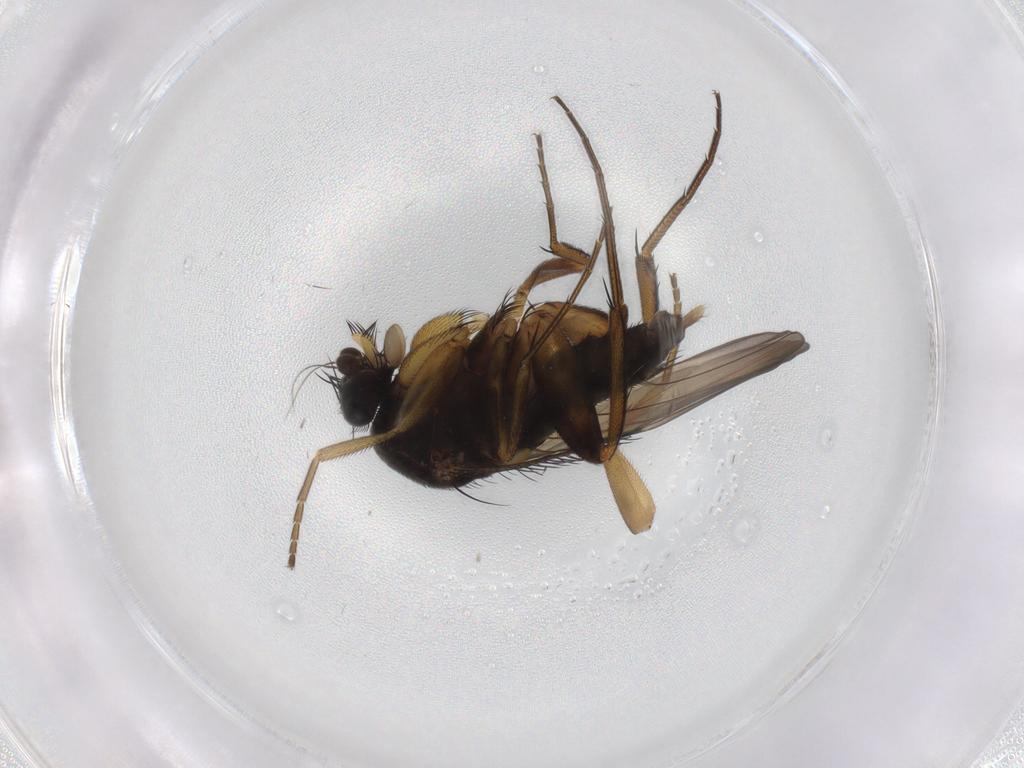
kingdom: Animalia
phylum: Arthropoda
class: Insecta
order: Diptera
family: Phoridae
